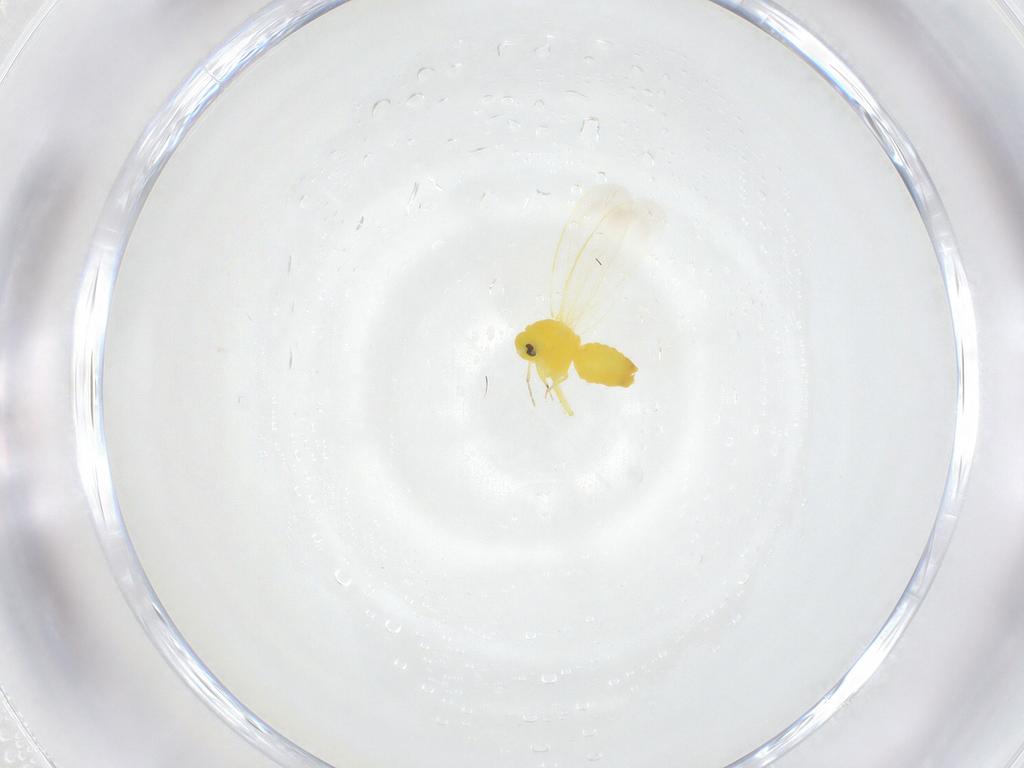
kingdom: Animalia
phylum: Arthropoda
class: Insecta
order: Hemiptera
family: Aleyrodidae
